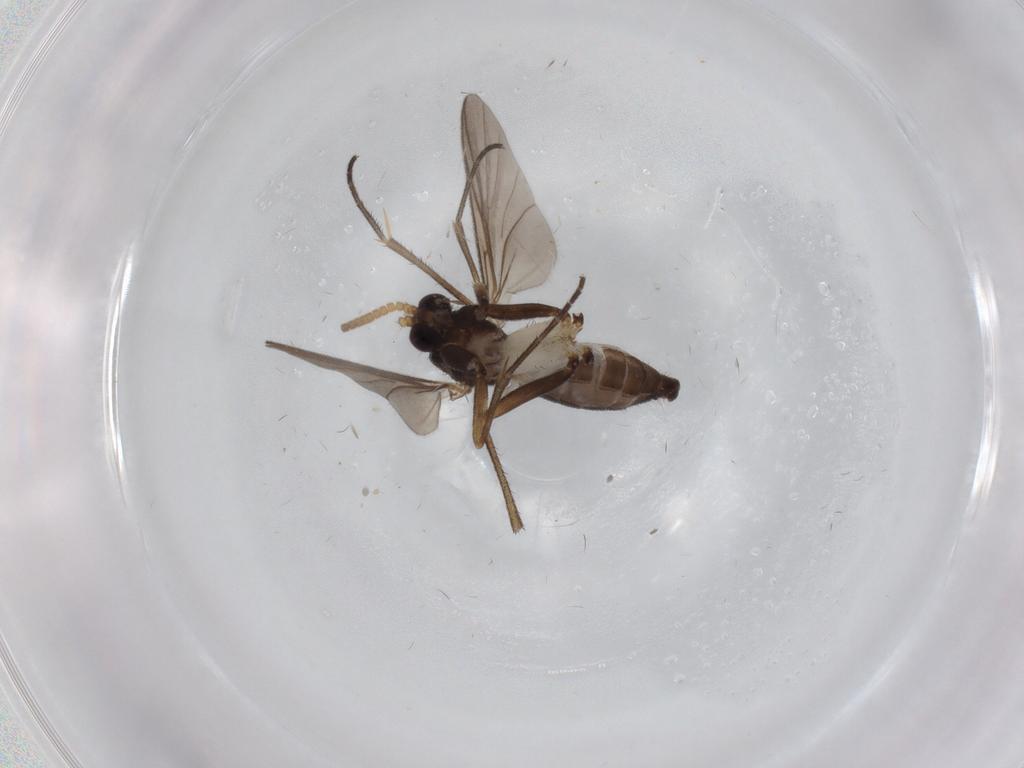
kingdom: Animalia
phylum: Arthropoda
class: Insecta
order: Diptera
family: Sciaridae
